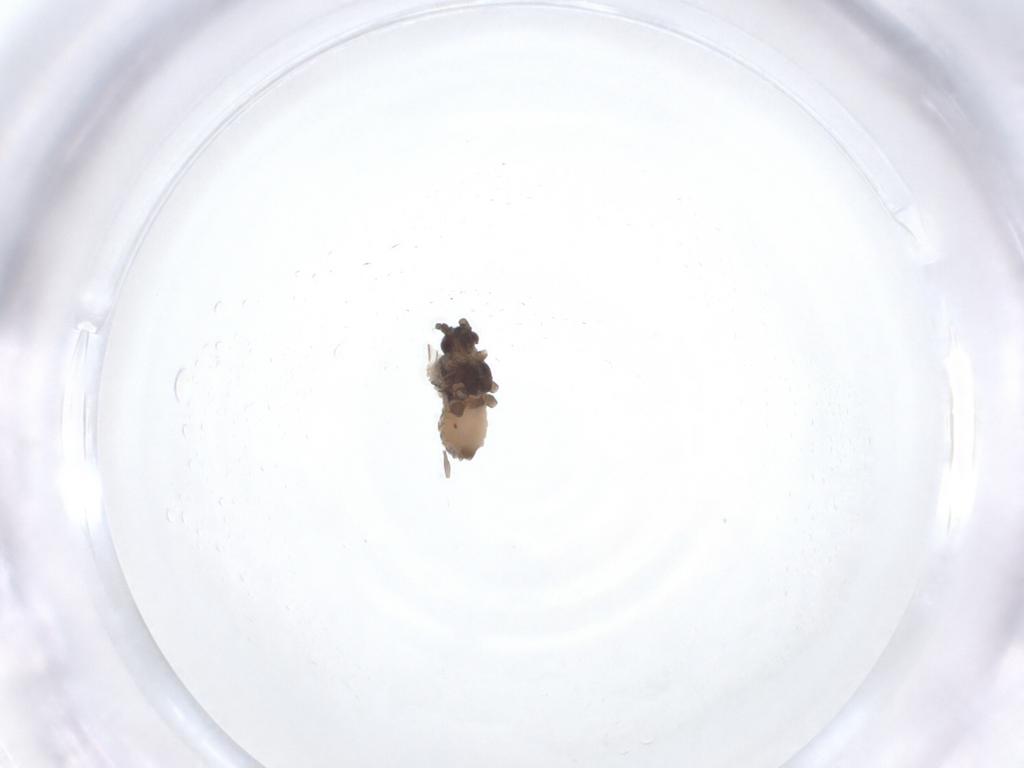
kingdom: Animalia
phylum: Arthropoda
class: Insecta
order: Hemiptera
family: Aphididae
